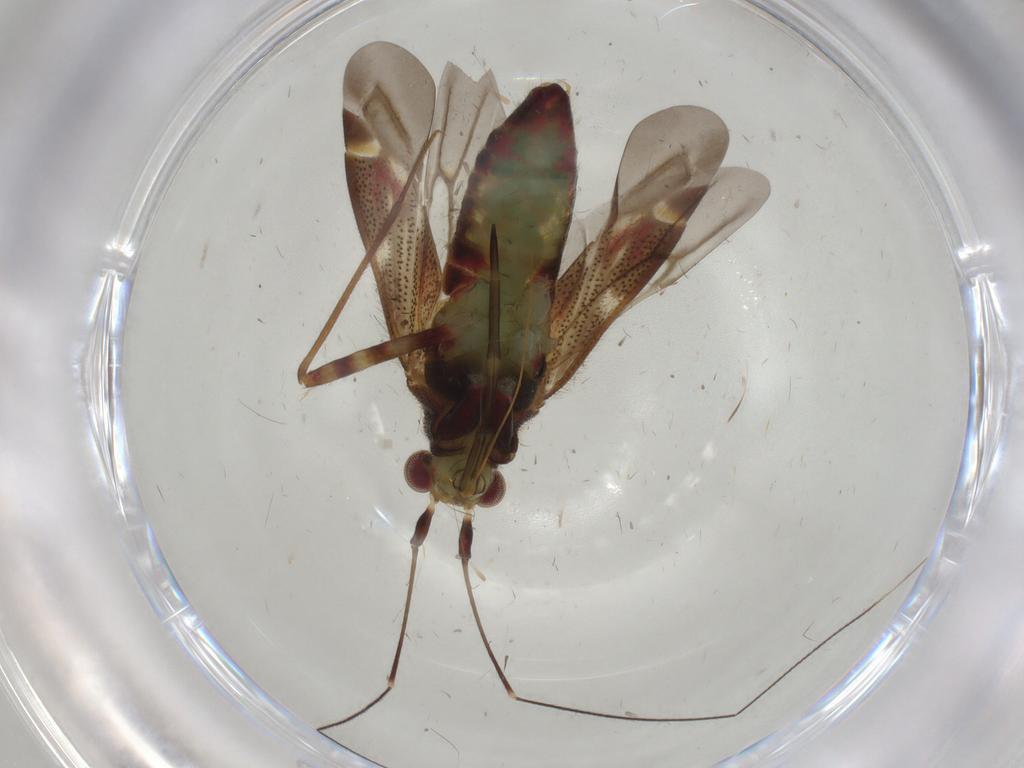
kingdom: Animalia
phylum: Arthropoda
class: Insecta
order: Hemiptera
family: Miridae
